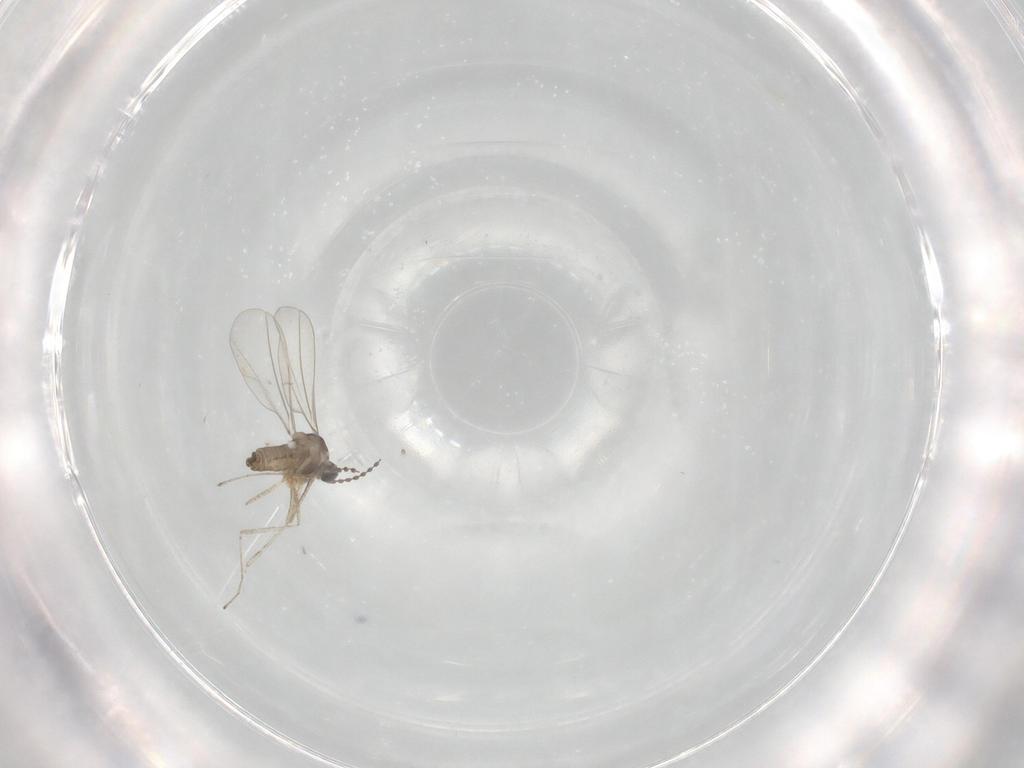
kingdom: Animalia
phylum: Arthropoda
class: Insecta
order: Diptera
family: Cecidomyiidae
